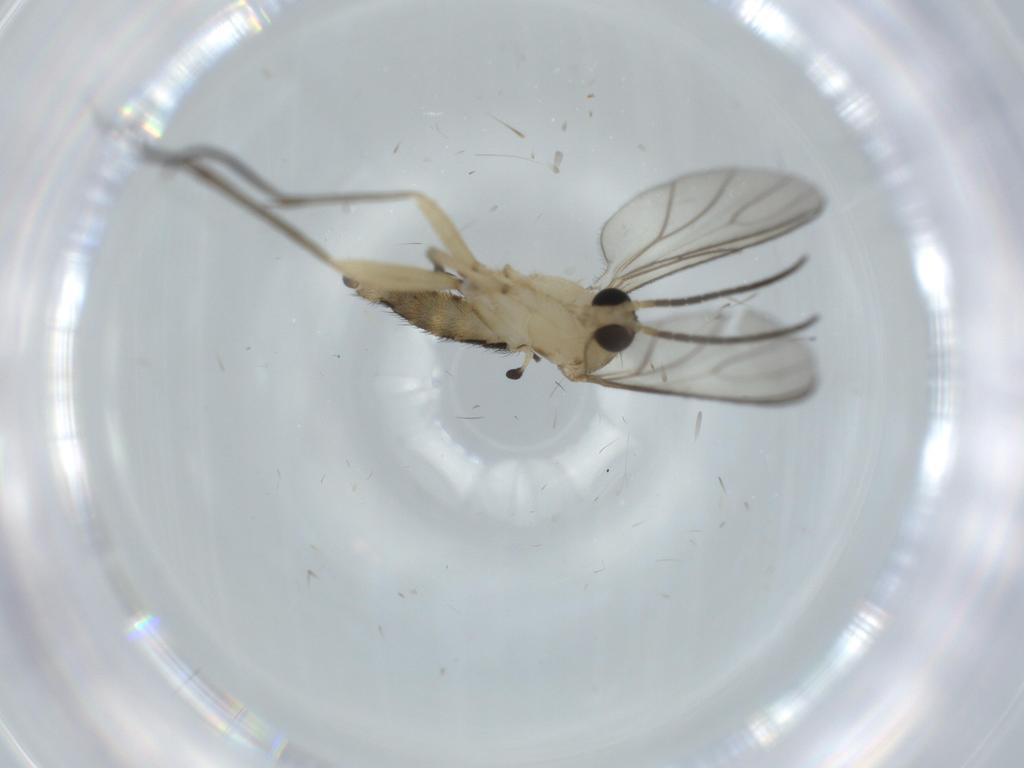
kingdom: Animalia
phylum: Arthropoda
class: Insecta
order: Diptera
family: Sciaridae
